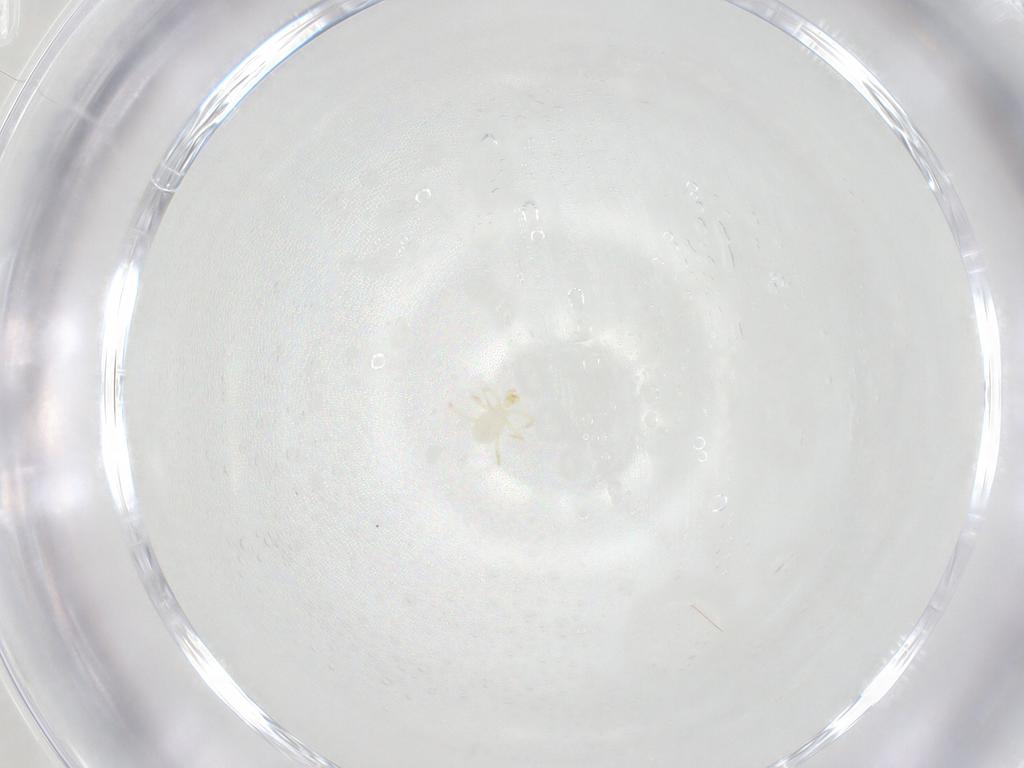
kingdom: Animalia
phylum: Arthropoda
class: Arachnida
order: Trombidiformes
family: Erythraeidae
